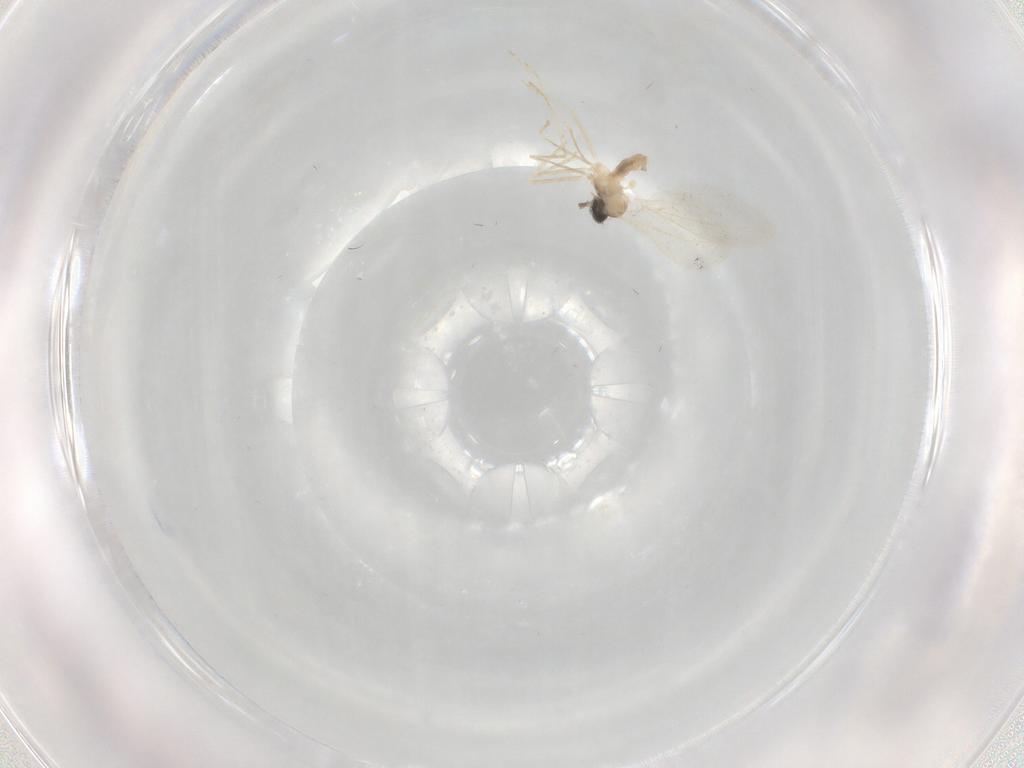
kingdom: Animalia
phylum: Arthropoda
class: Insecta
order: Diptera
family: Cecidomyiidae
